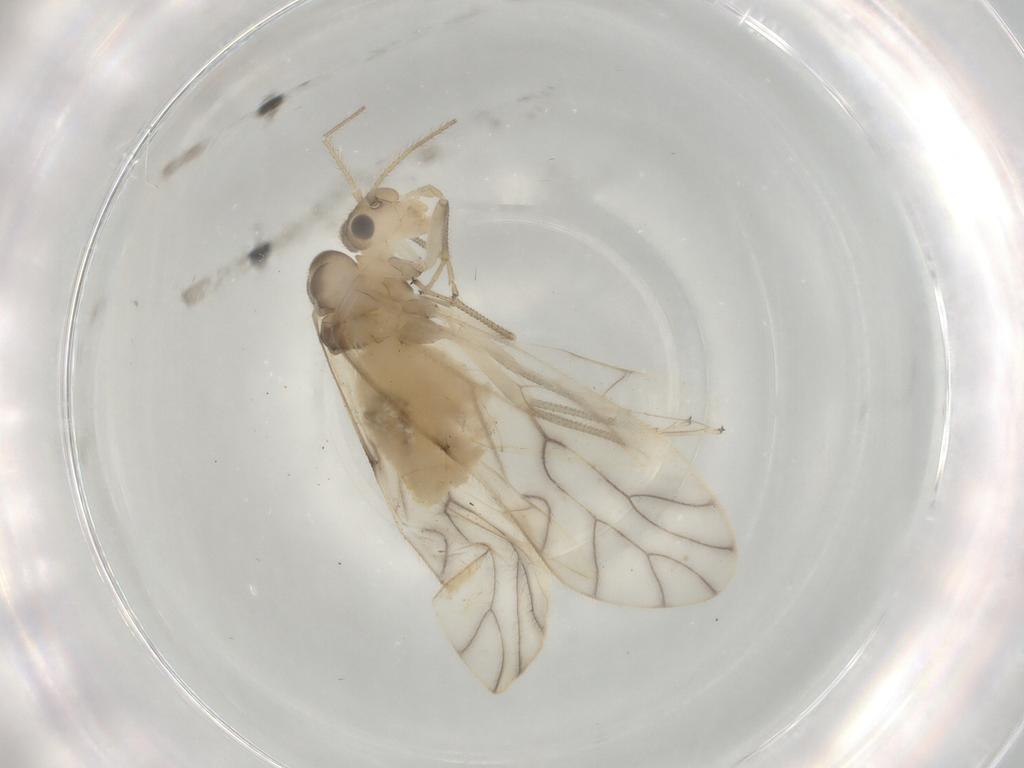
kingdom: Animalia
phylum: Arthropoda
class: Insecta
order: Psocodea
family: Caeciliusidae
